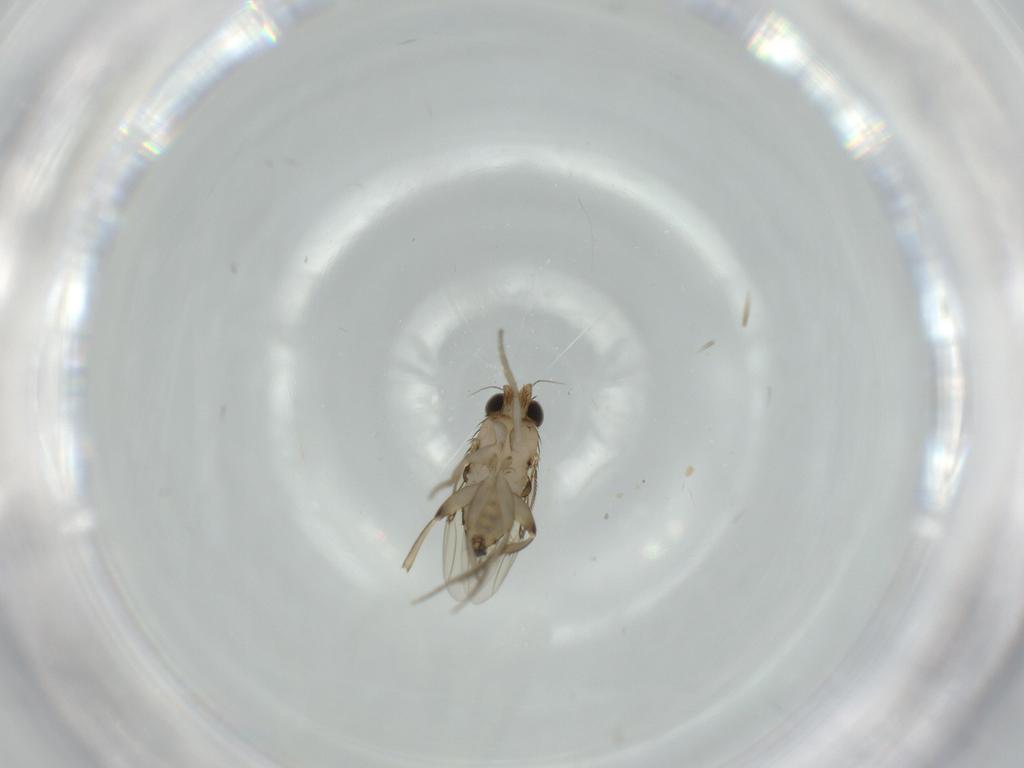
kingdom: Animalia
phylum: Arthropoda
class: Insecta
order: Diptera
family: Phoridae
